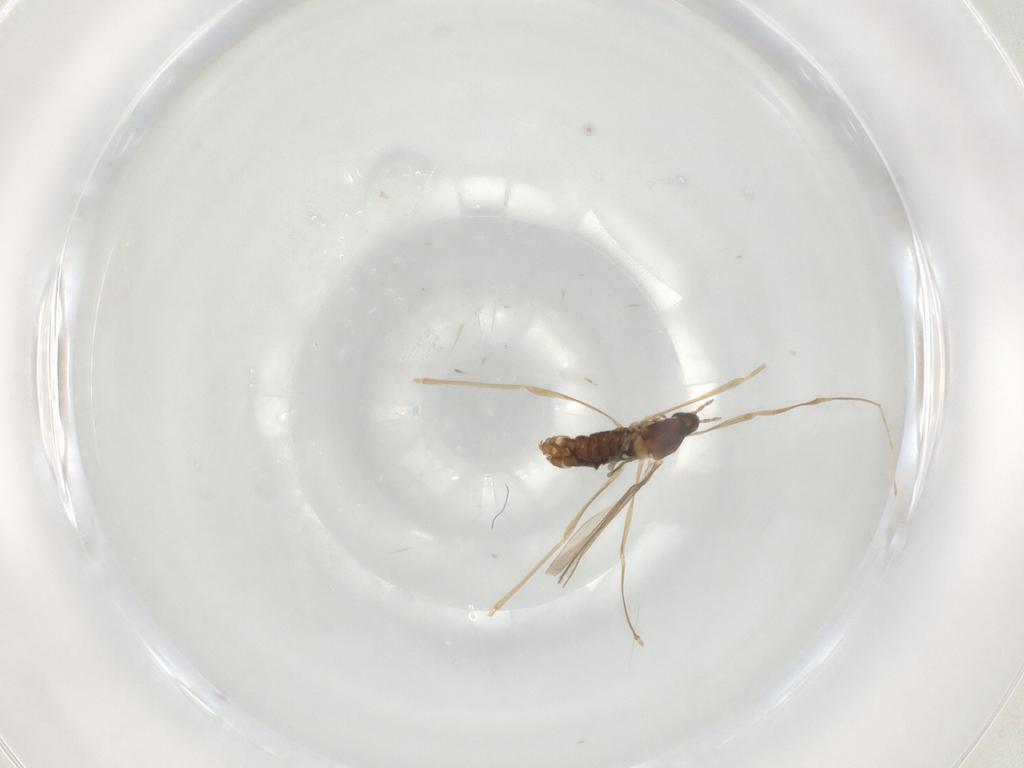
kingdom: Animalia
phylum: Arthropoda
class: Insecta
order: Diptera
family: Cecidomyiidae
